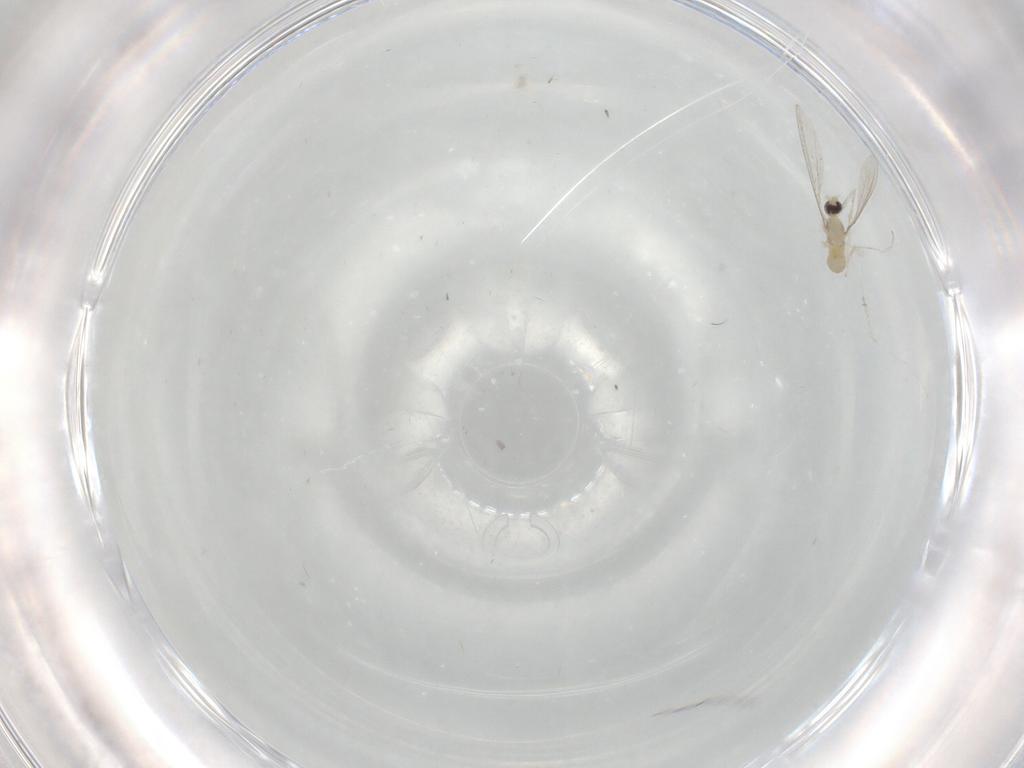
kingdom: Animalia
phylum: Arthropoda
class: Insecta
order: Diptera
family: Cecidomyiidae
